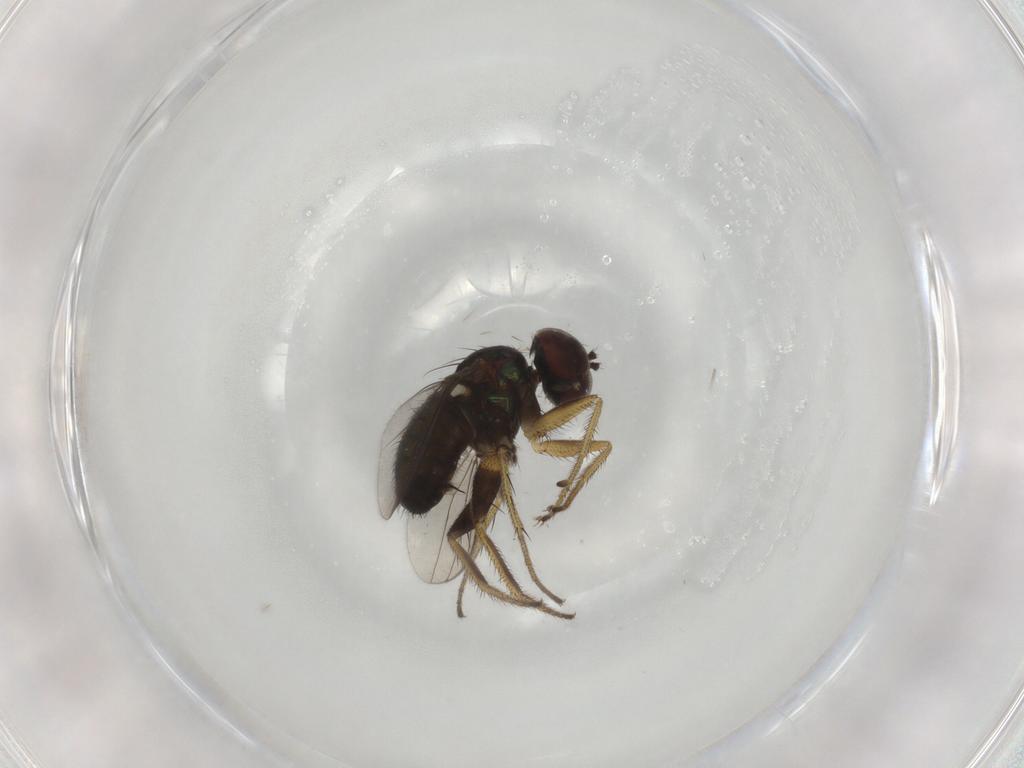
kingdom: Animalia
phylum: Arthropoda
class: Insecta
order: Diptera
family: Dolichopodidae
